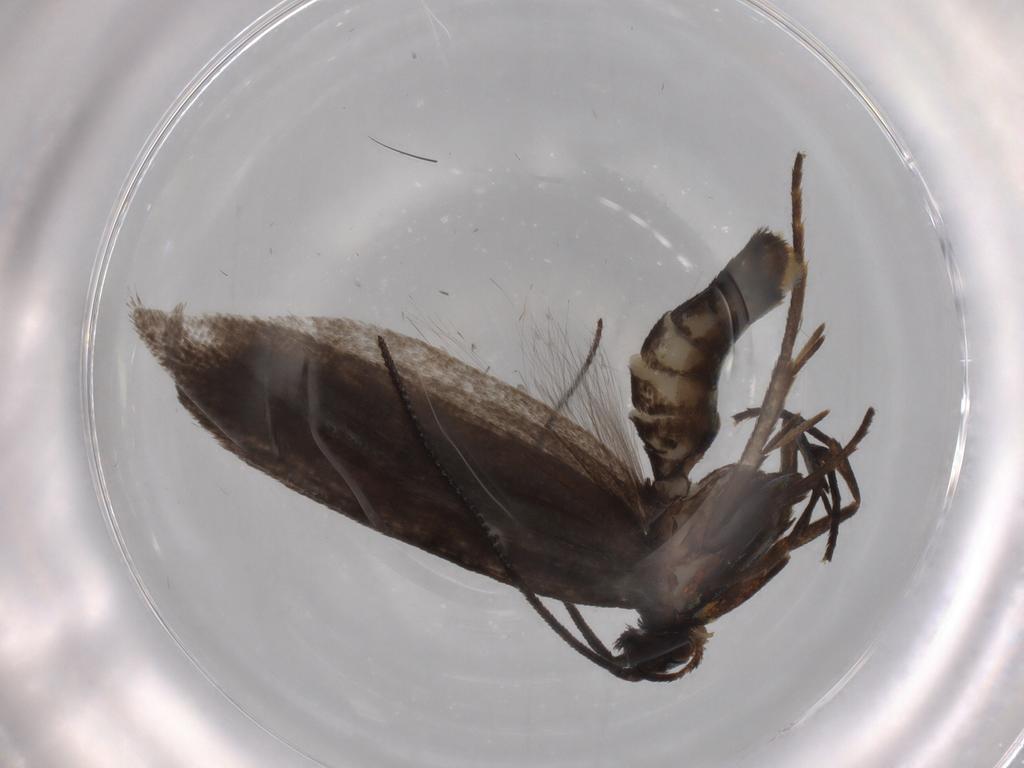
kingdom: Animalia
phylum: Arthropoda
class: Insecta
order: Lepidoptera
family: Argyresthiidae
